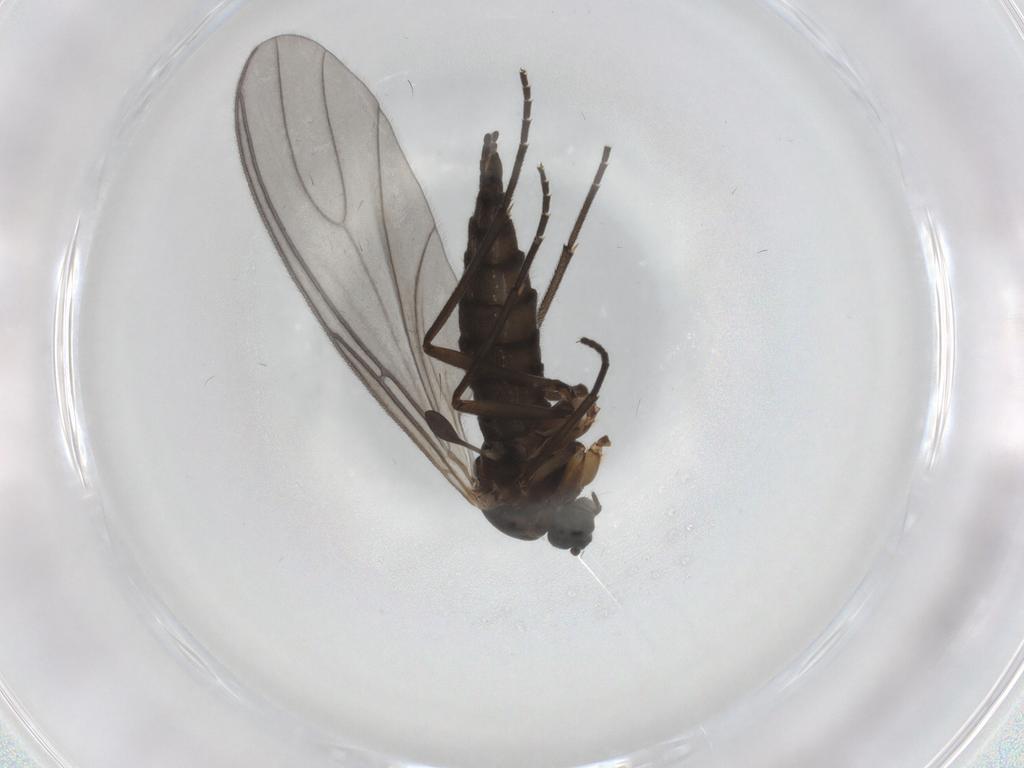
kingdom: Animalia
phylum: Arthropoda
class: Insecta
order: Diptera
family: Sciaridae
